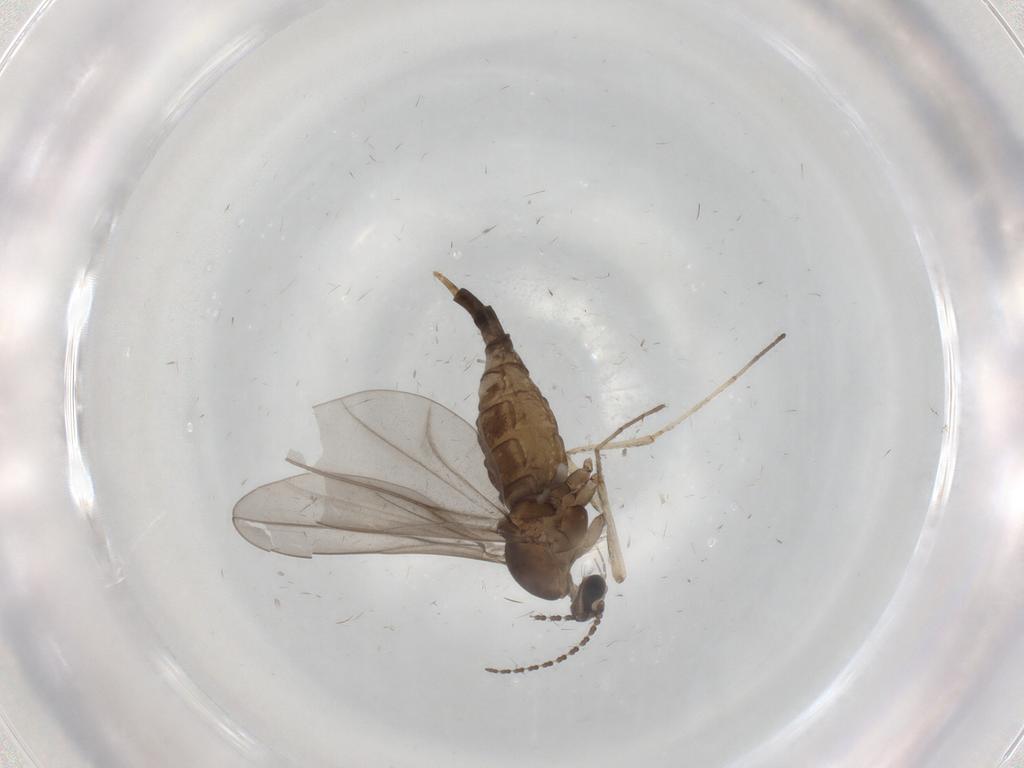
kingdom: Animalia
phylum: Arthropoda
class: Insecta
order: Diptera
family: Cecidomyiidae
